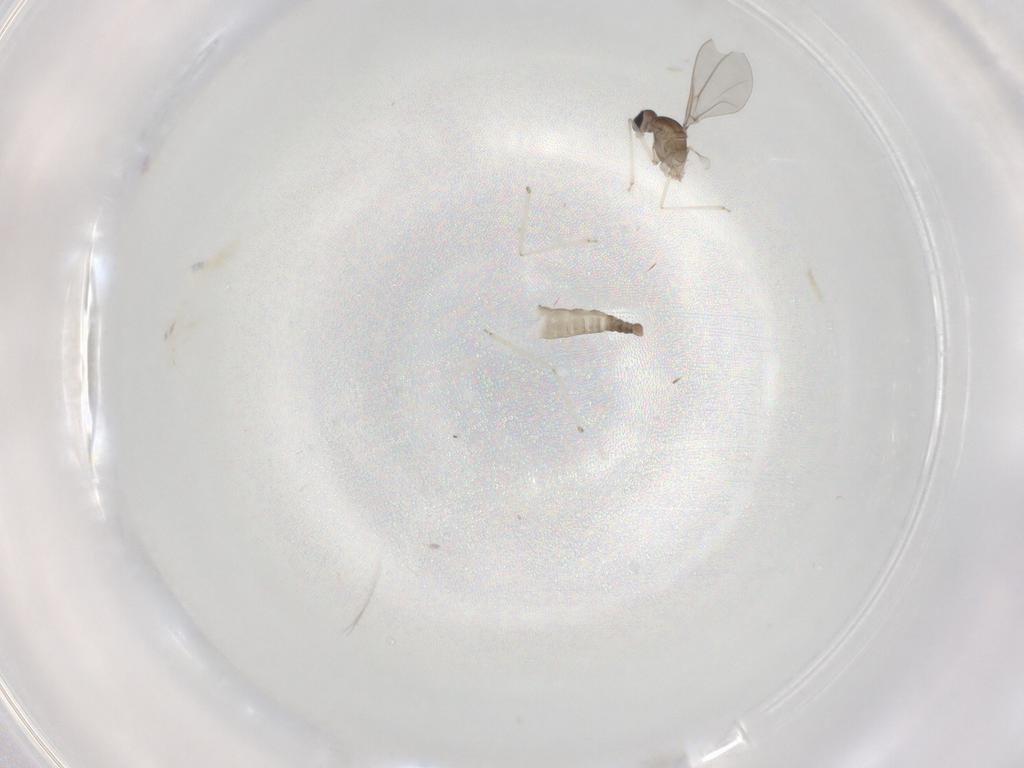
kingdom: Animalia
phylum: Arthropoda
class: Insecta
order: Diptera
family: Cecidomyiidae
